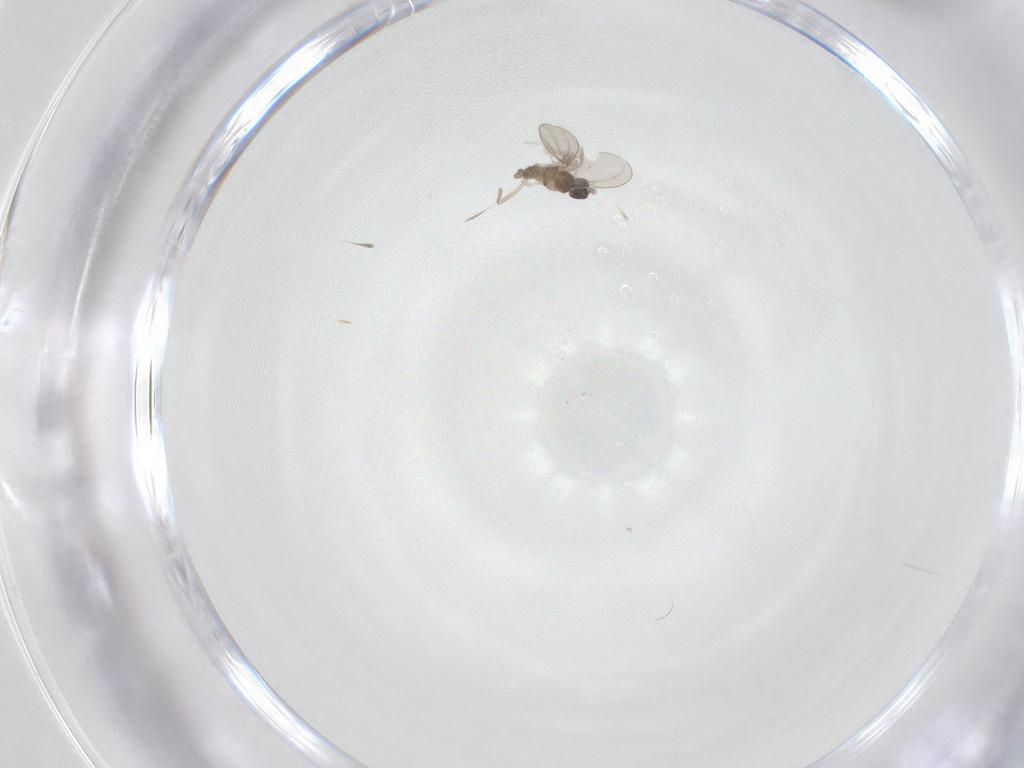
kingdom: Animalia
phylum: Arthropoda
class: Insecta
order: Diptera
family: Cecidomyiidae
